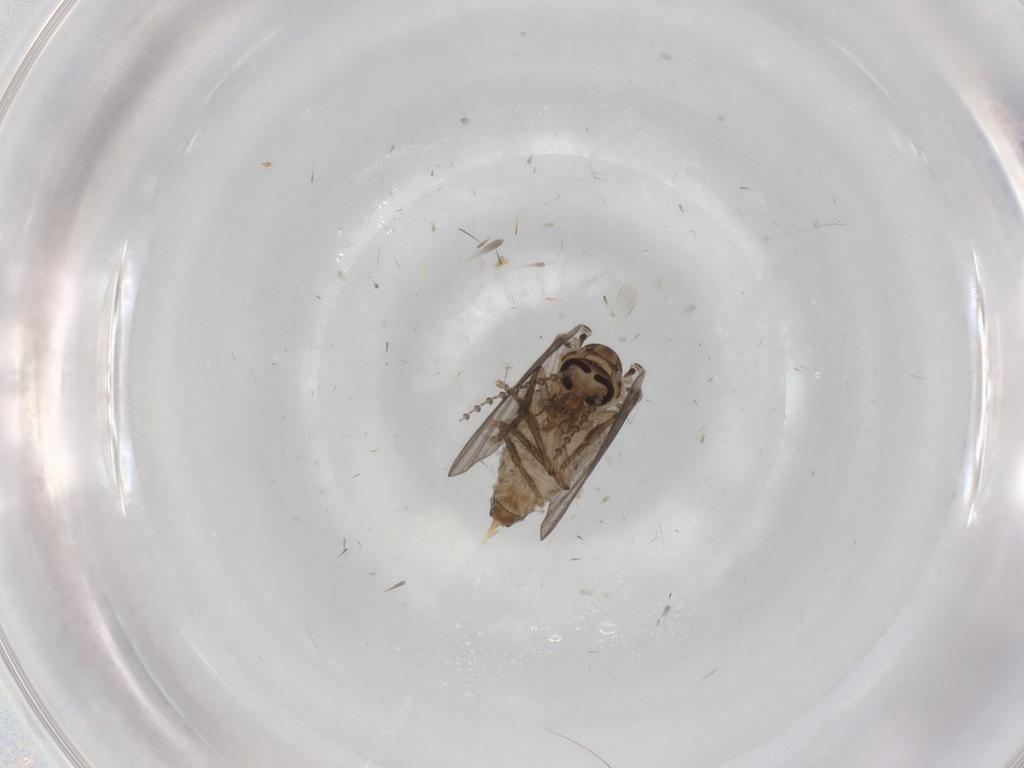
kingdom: Animalia
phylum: Arthropoda
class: Insecta
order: Diptera
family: Psychodidae
